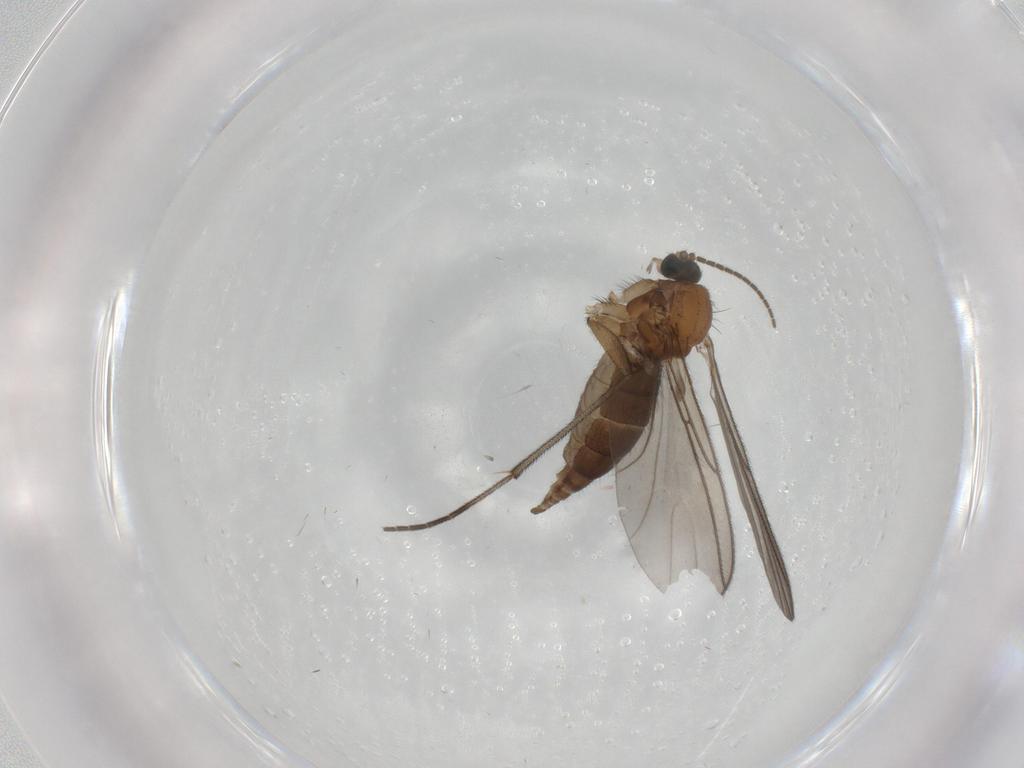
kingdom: Animalia
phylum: Arthropoda
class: Insecta
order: Diptera
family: Sciaridae
